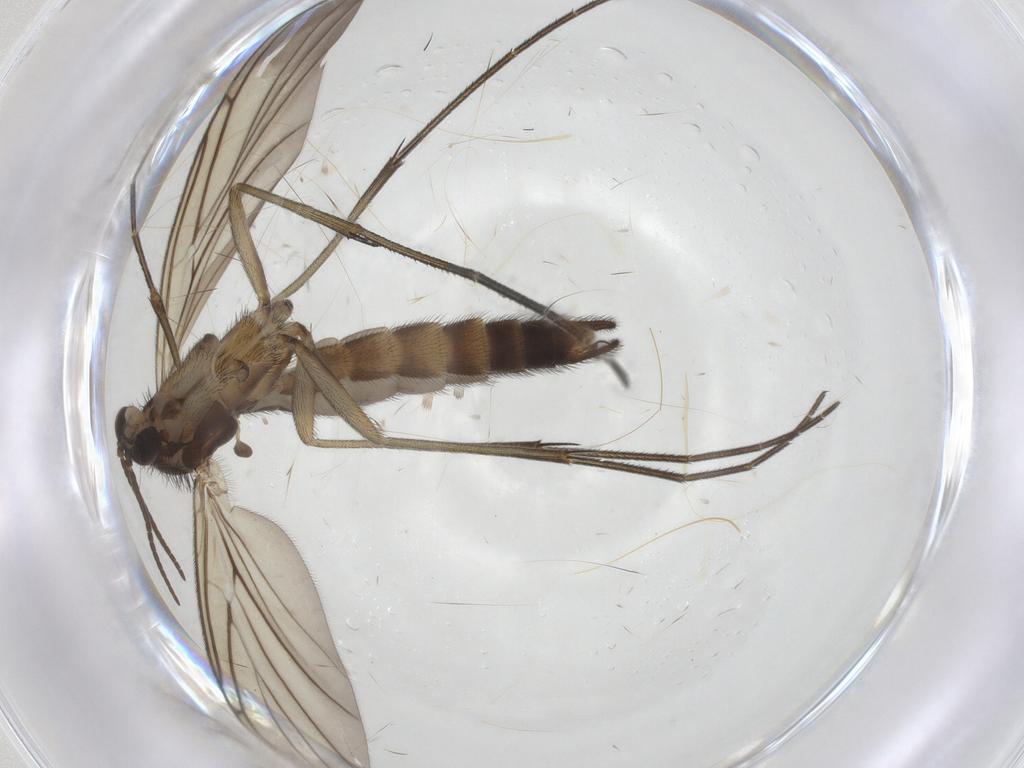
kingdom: Animalia
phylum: Arthropoda
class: Insecta
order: Diptera
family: Keroplatidae
